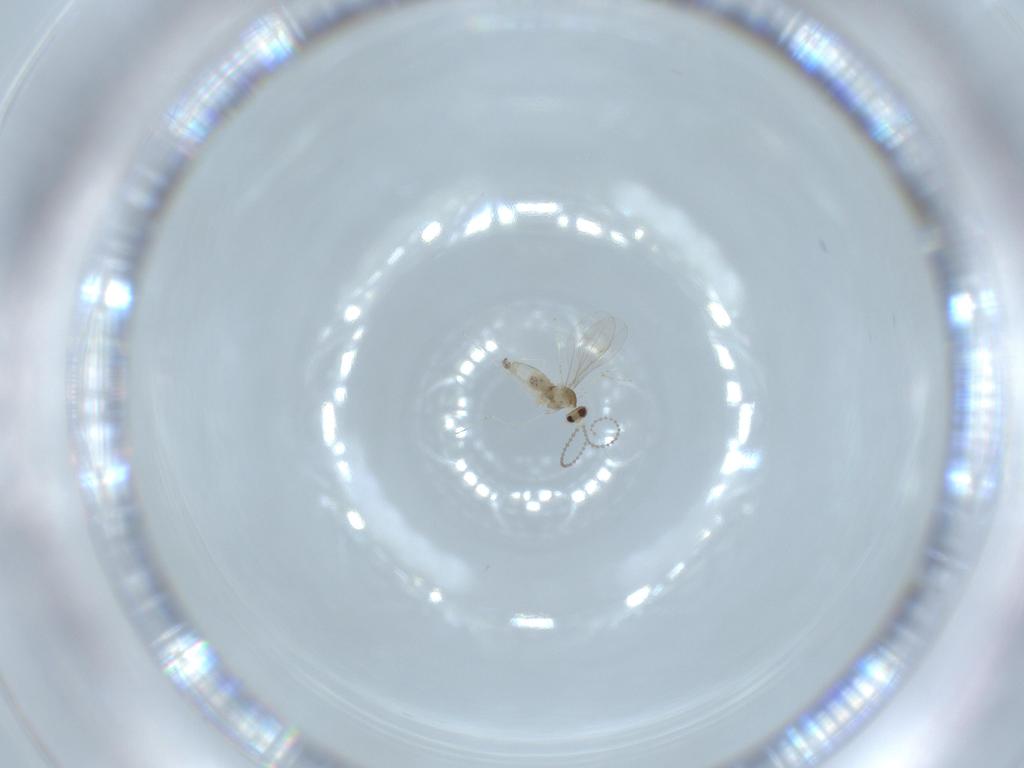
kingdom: Animalia
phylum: Arthropoda
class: Insecta
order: Diptera
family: Cecidomyiidae
